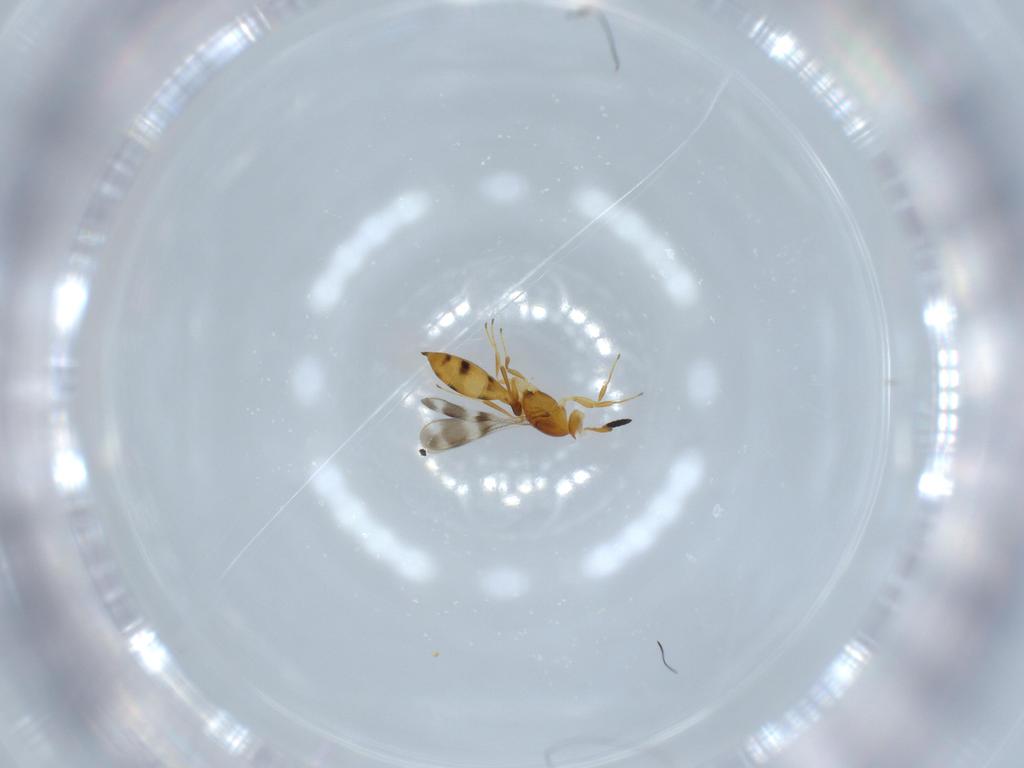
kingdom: Animalia
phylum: Arthropoda
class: Insecta
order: Hymenoptera
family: Scelionidae
